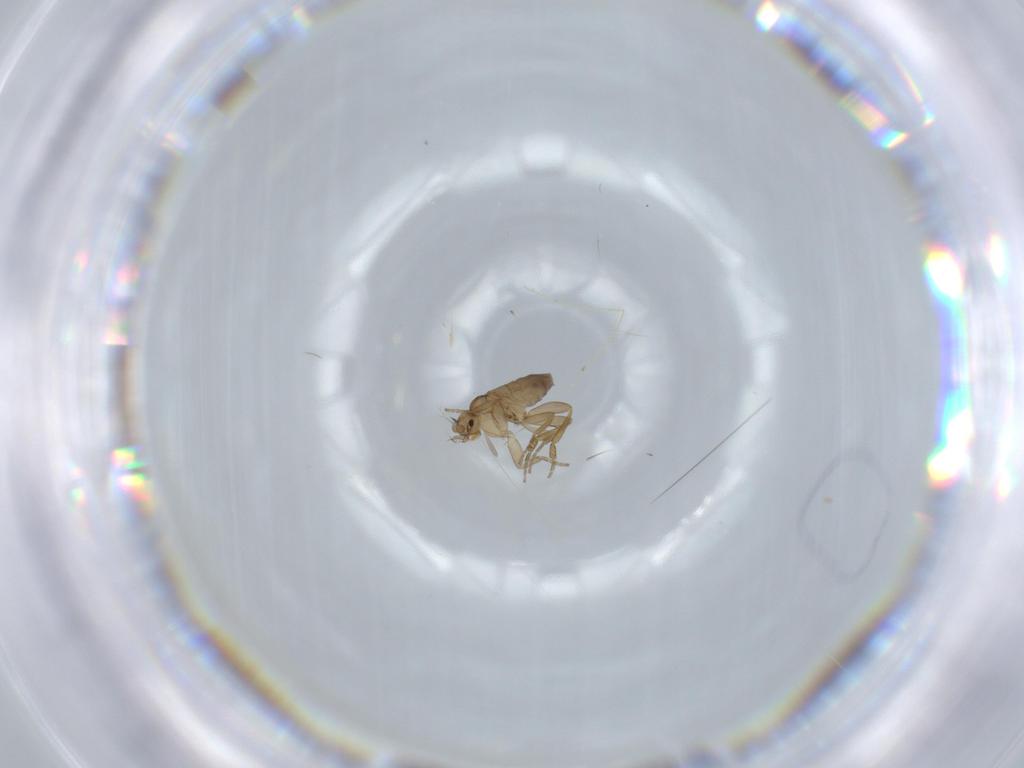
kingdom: Animalia
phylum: Arthropoda
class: Insecta
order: Diptera
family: Phoridae
